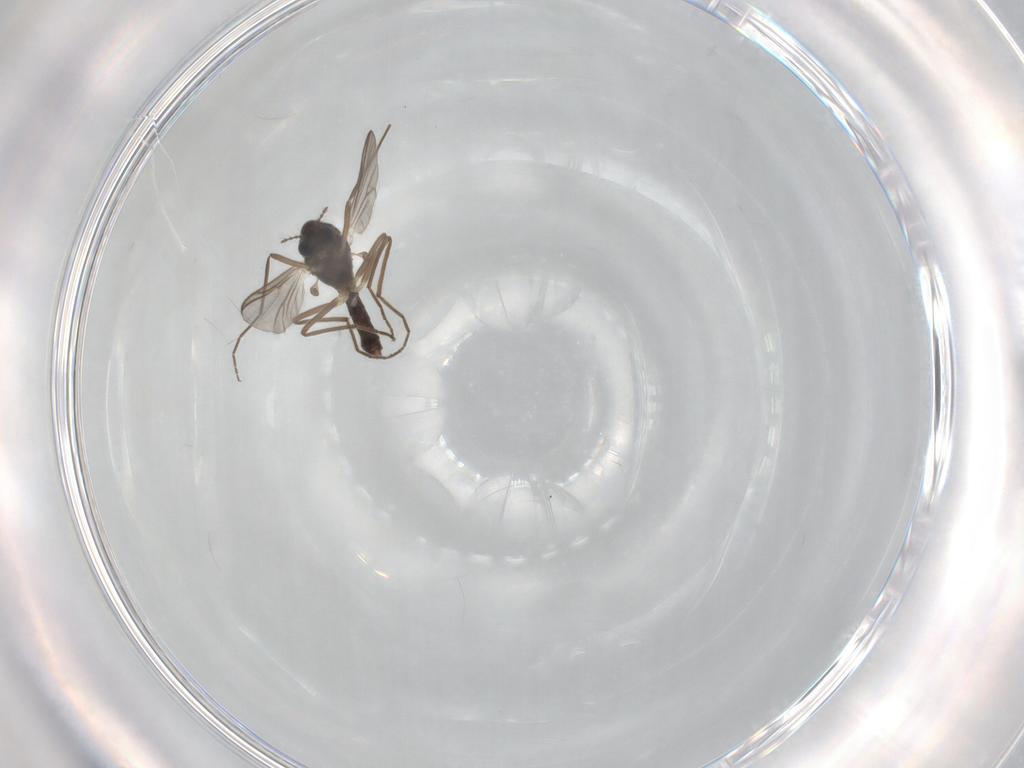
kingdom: Animalia
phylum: Arthropoda
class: Insecta
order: Diptera
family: Chironomidae
